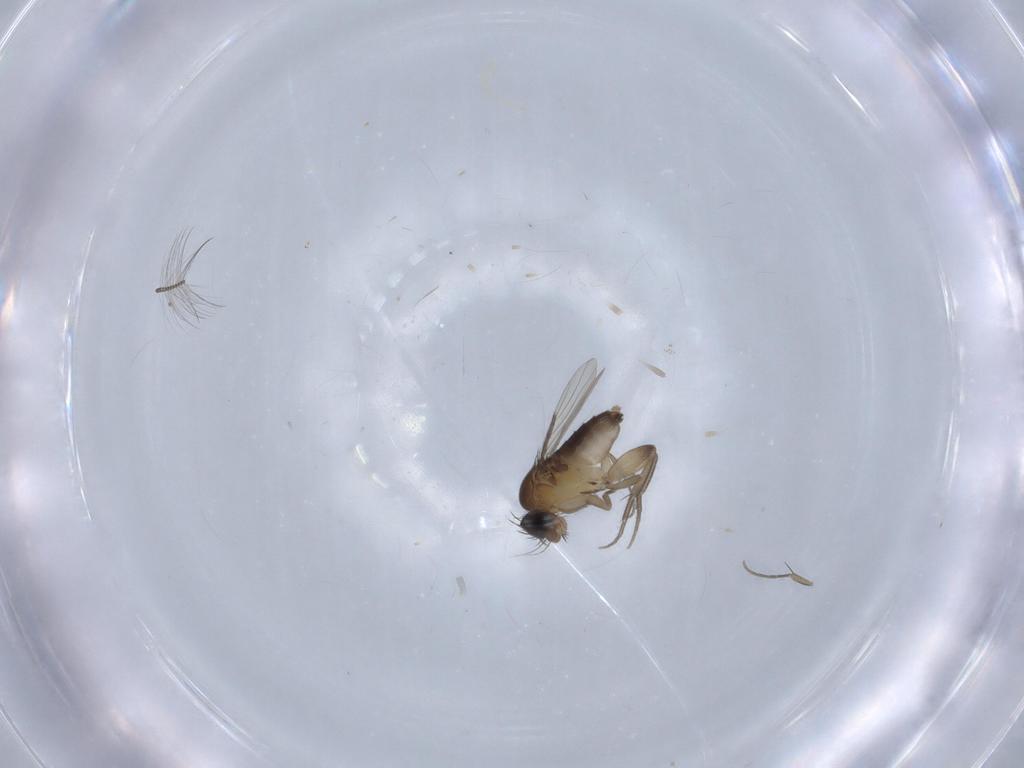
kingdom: Animalia
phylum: Arthropoda
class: Insecta
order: Diptera
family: Phoridae
